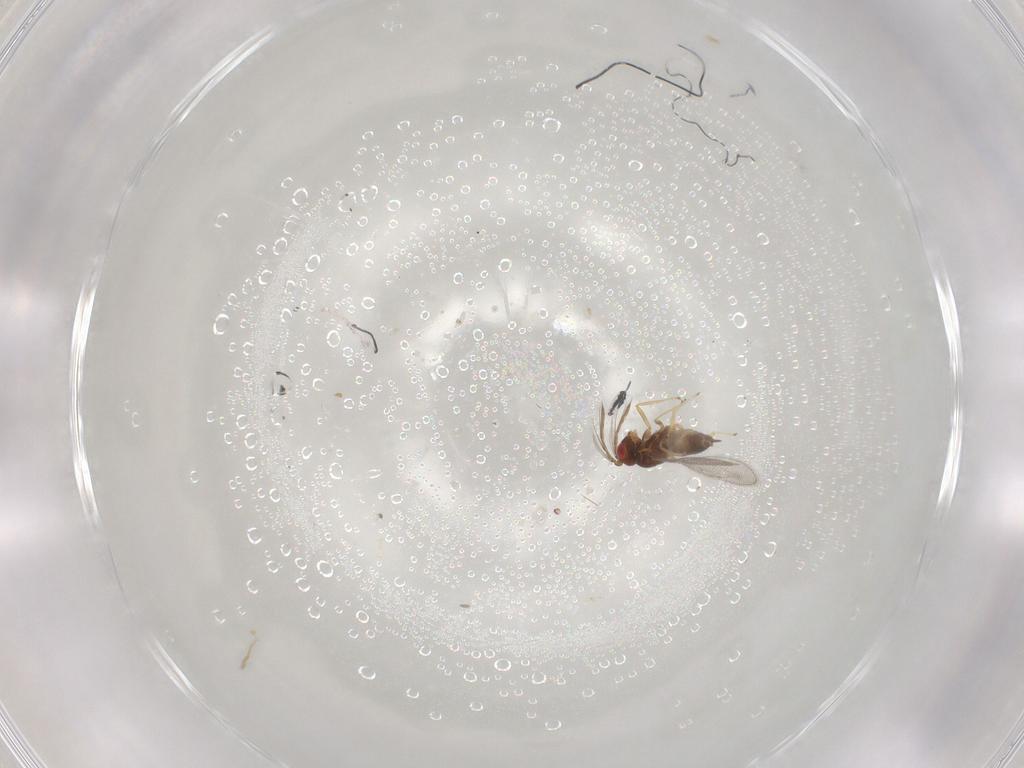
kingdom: Animalia
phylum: Arthropoda
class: Insecta
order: Hymenoptera
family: Eulophidae
